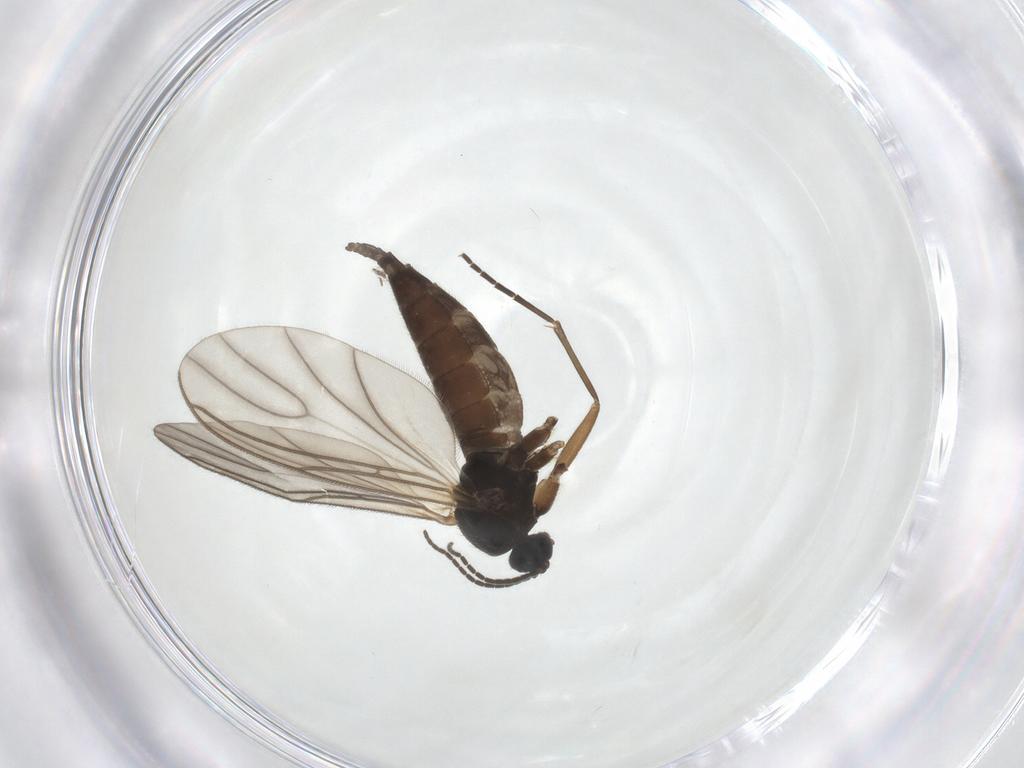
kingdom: Animalia
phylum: Arthropoda
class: Insecta
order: Diptera
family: Sciaridae
